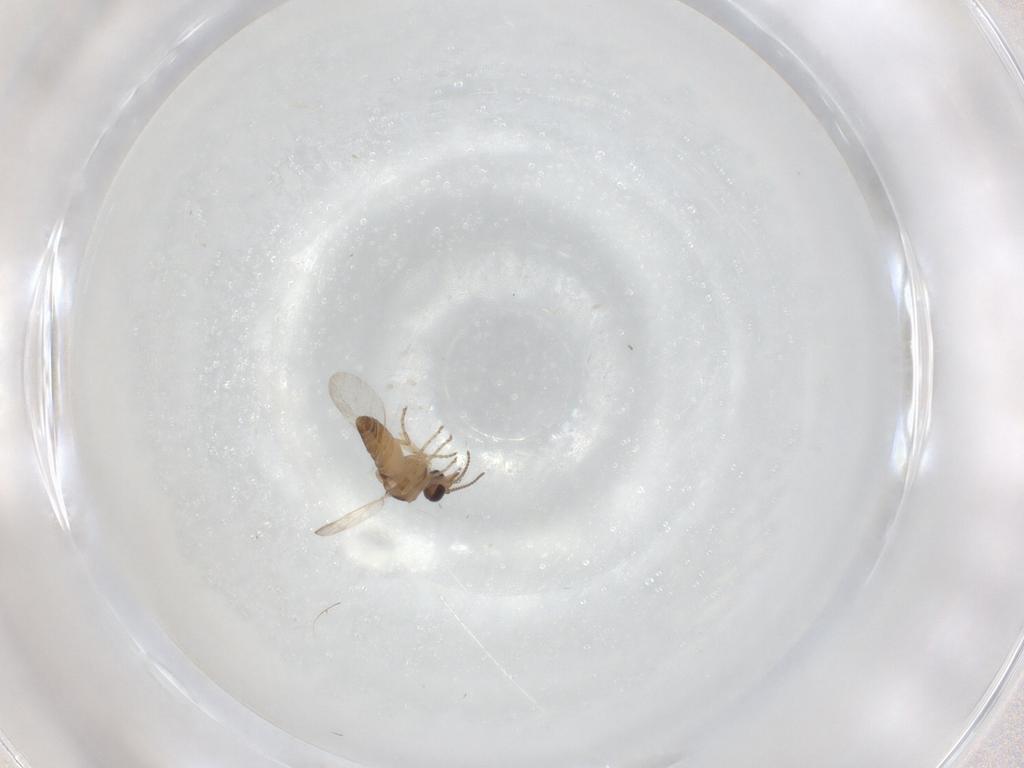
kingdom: Animalia
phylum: Arthropoda
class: Insecta
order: Diptera
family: Ceratopogonidae
